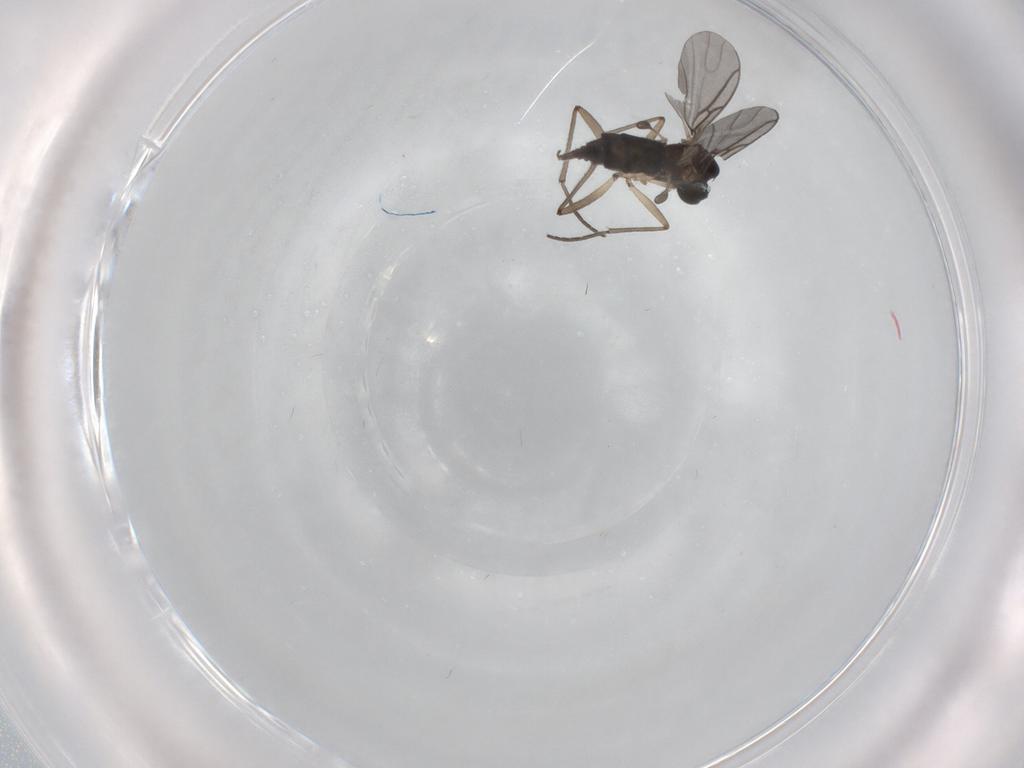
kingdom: Animalia
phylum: Arthropoda
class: Insecta
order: Diptera
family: Sciaridae
